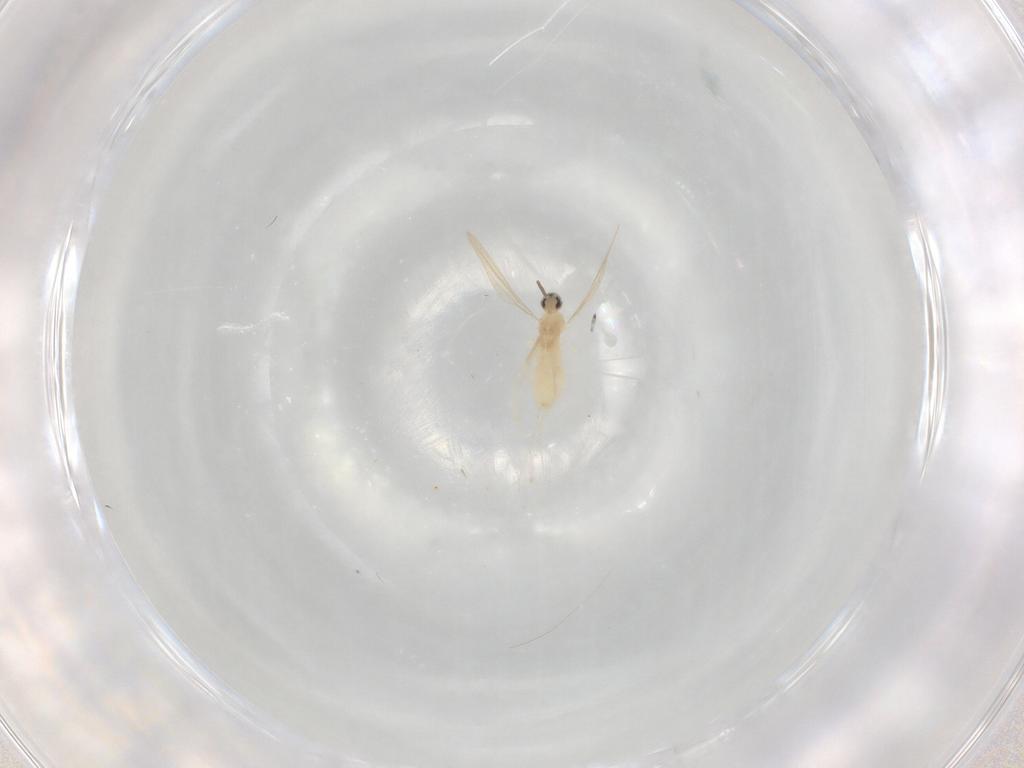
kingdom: Animalia
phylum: Arthropoda
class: Insecta
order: Diptera
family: Cecidomyiidae
